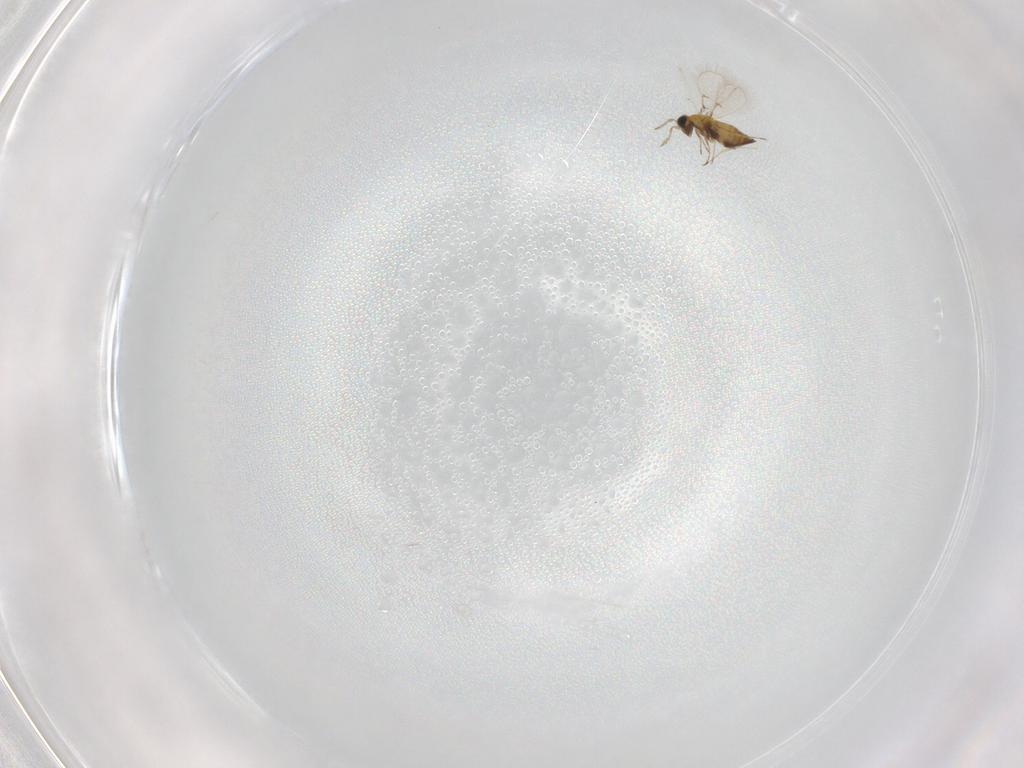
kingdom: Animalia
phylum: Arthropoda
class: Insecta
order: Hymenoptera
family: Trichogrammatidae
